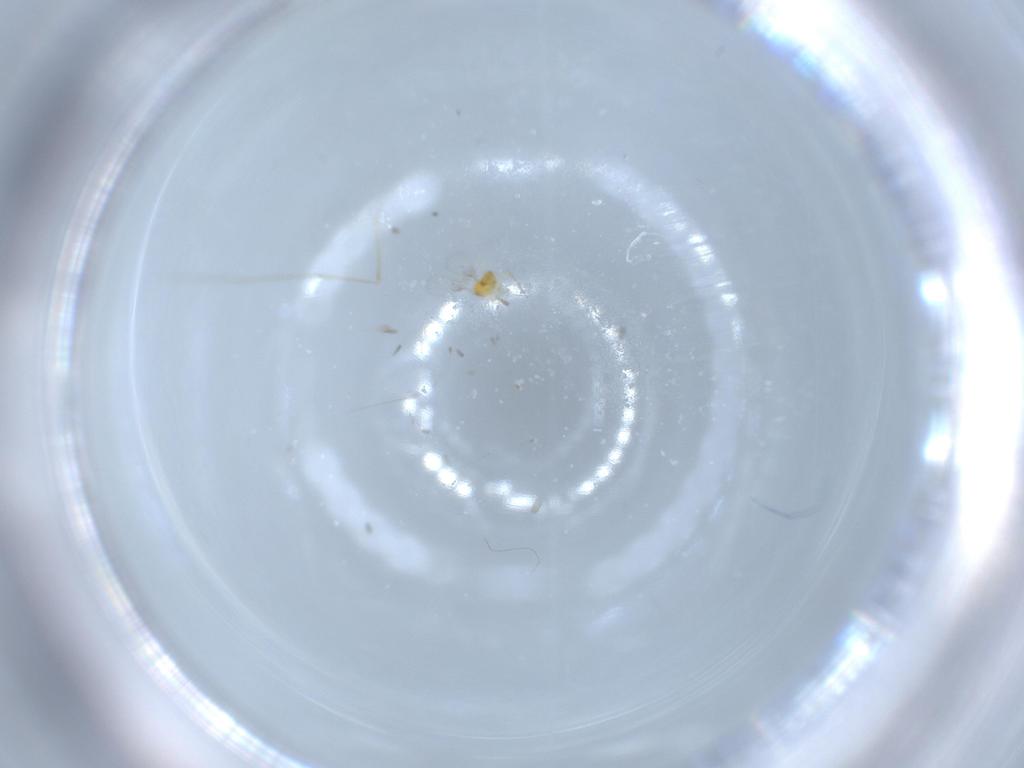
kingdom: Animalia
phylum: Arthropoda
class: Insecta
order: Hymenoptera
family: Trichogrammatidae
